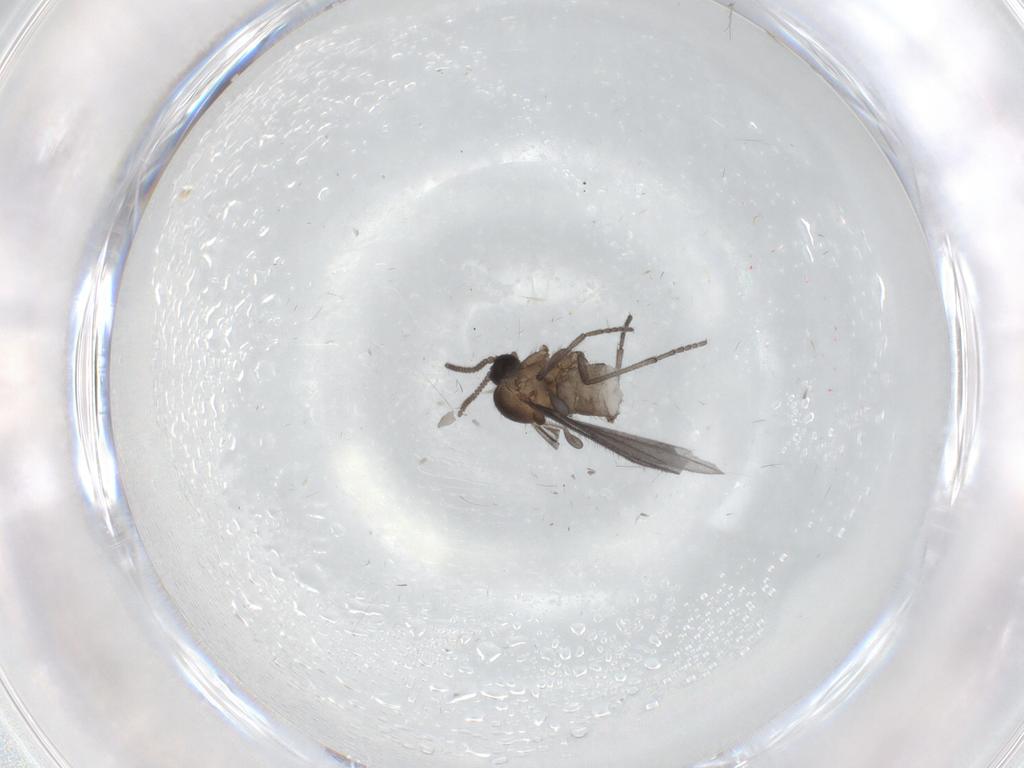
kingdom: Animalia
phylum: Arthropoda
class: Insecta
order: Diptera
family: Sciaridae
